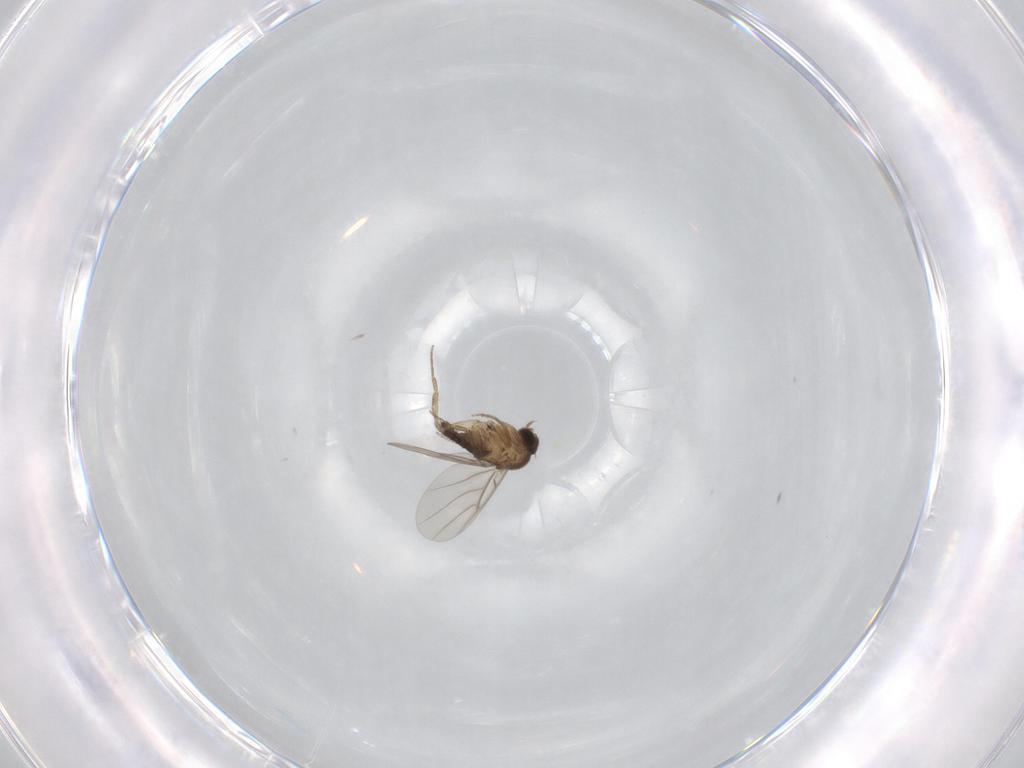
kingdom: Animalia
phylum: Arthropoda
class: Insecta
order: Diptera
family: Phoridae
